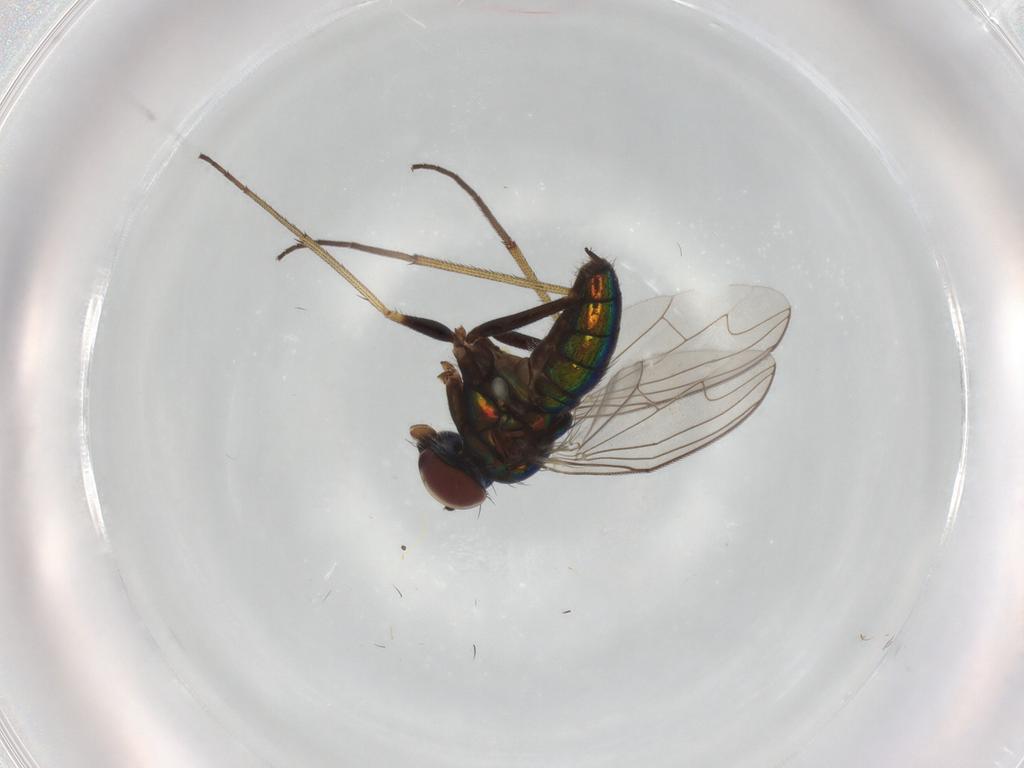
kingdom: Animalia
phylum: Arthropoda
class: Insecta
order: Diptera
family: Dolichopodidae
